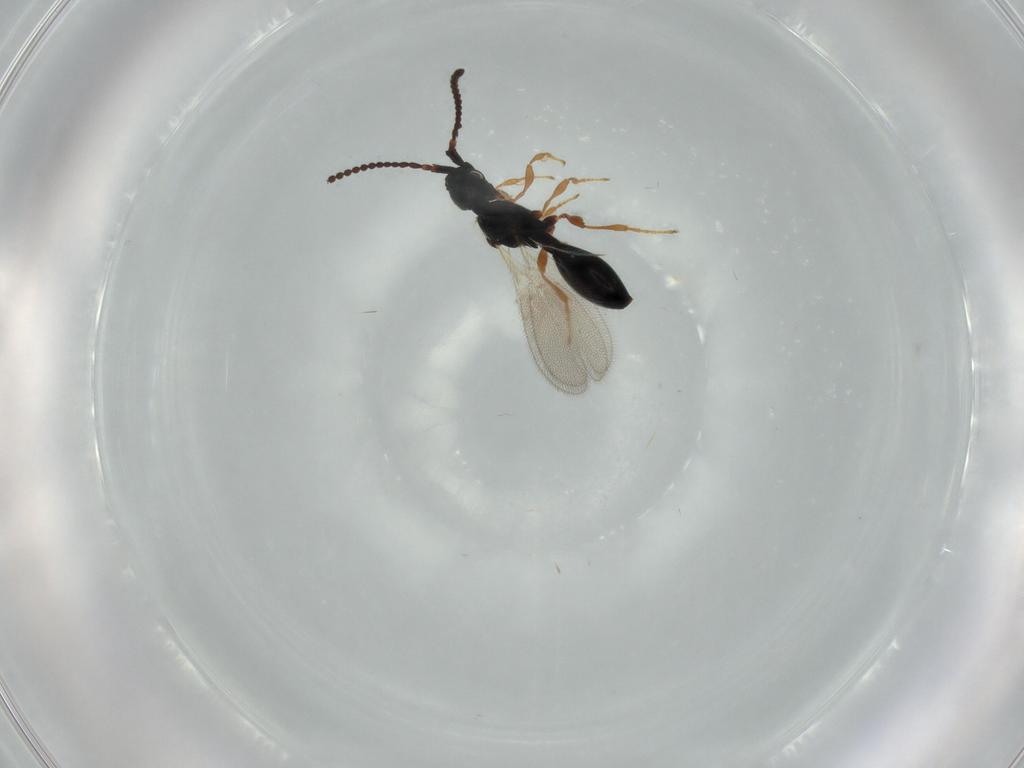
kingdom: Animalia
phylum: Arthropoda
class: Insecta
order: Hymenoptera
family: Diapriidae
